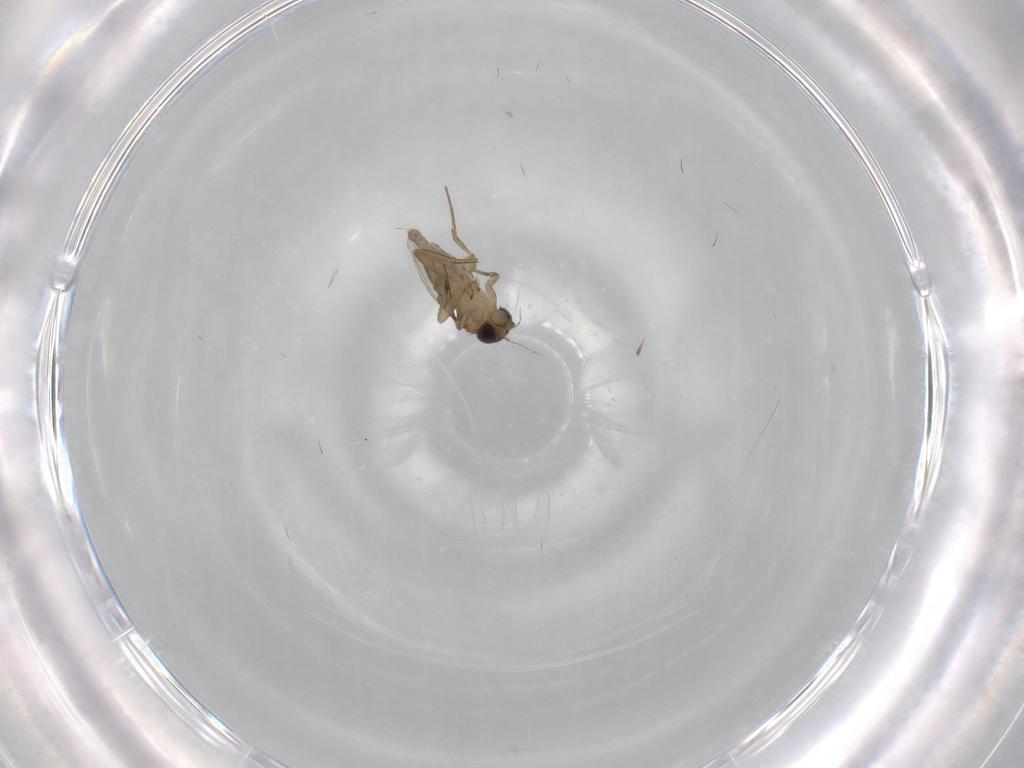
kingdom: Animalia
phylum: Arthropoda
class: Insecta
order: Diptera
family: Phoridae
